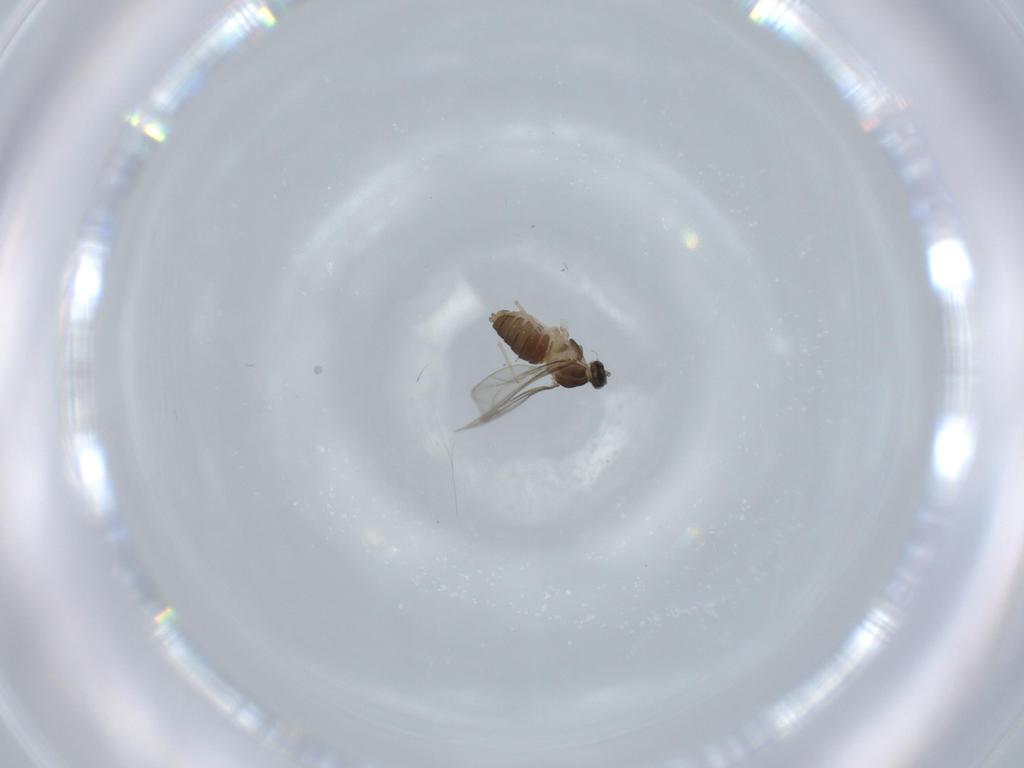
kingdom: Animalia
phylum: Arthropoda
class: Insecta
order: Diptera
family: Cecidomyiidae
